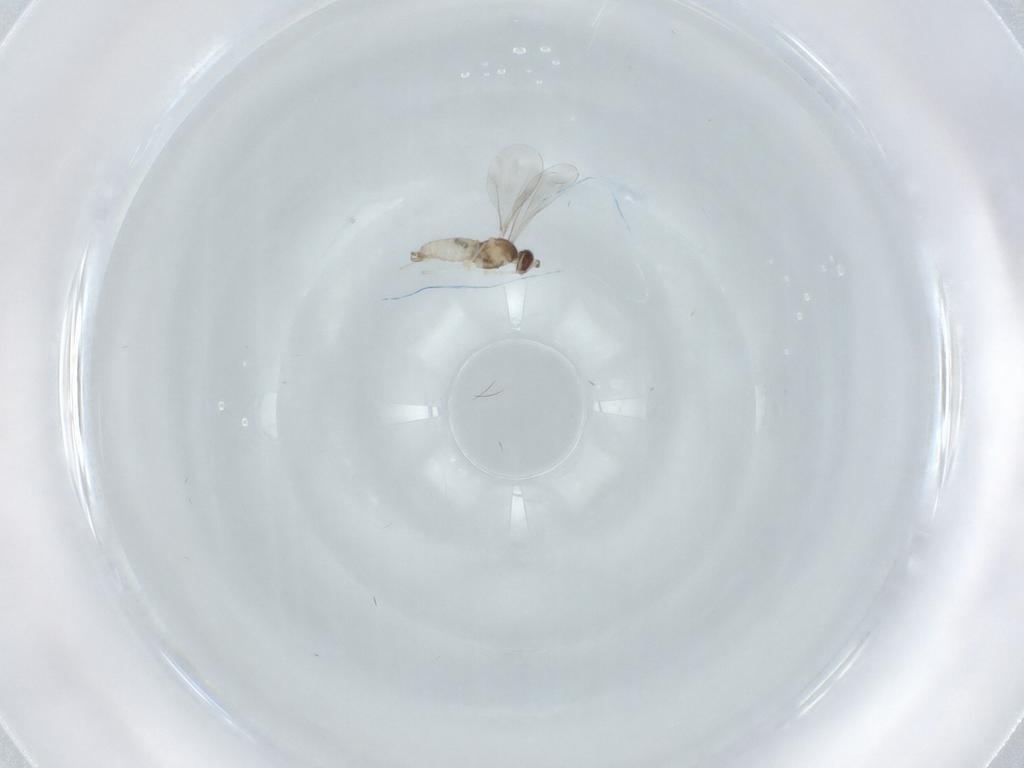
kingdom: Animalia
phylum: Arthropoda
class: Insecta
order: Diptera
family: Cecidomyiidae
